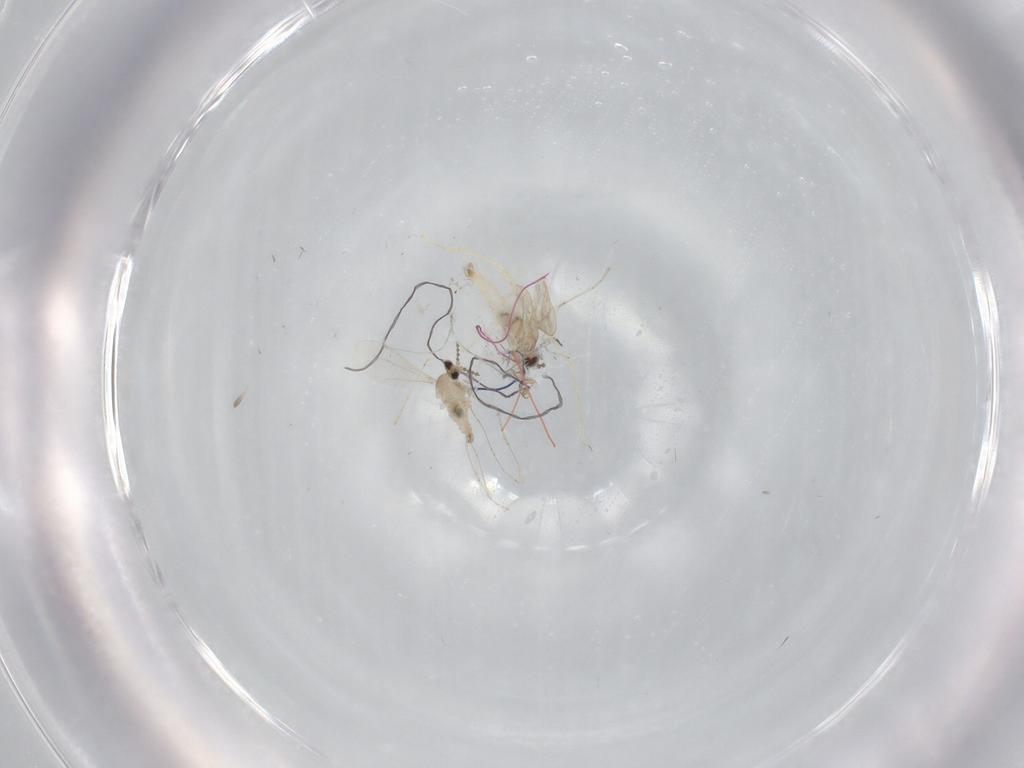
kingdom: Animalia
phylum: Arthropoda
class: Insecta
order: Diptera
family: Cecidomyiidae
